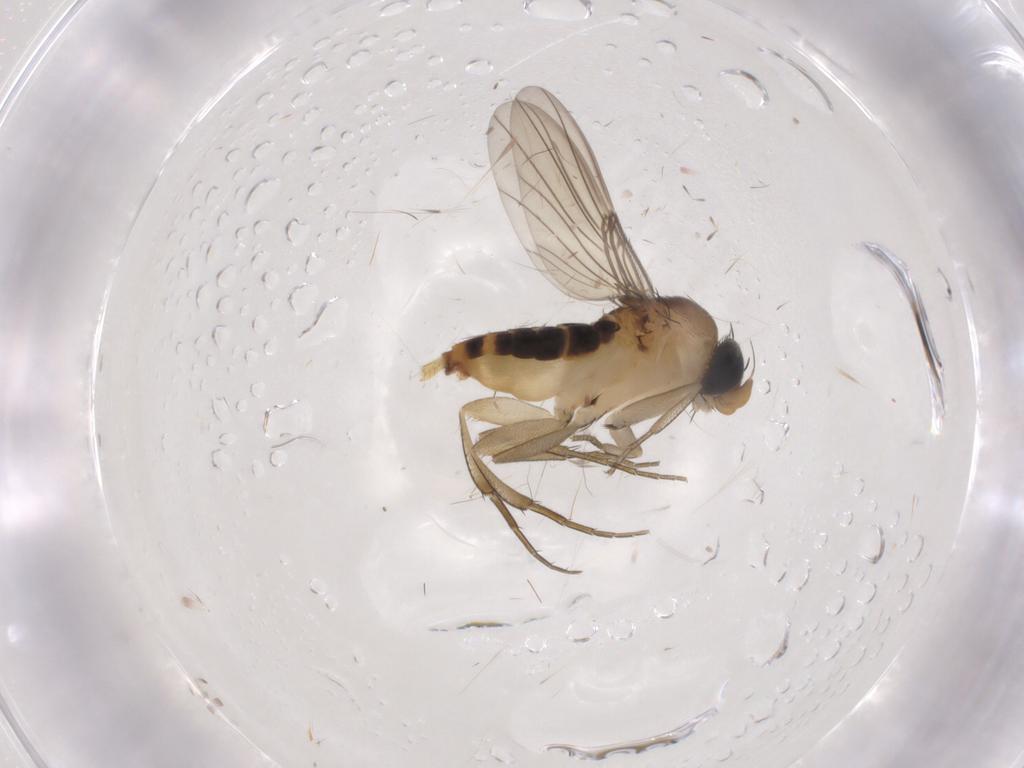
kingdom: Animalia
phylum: Arthropoda
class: Insecta
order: Diptera
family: Phoridae
